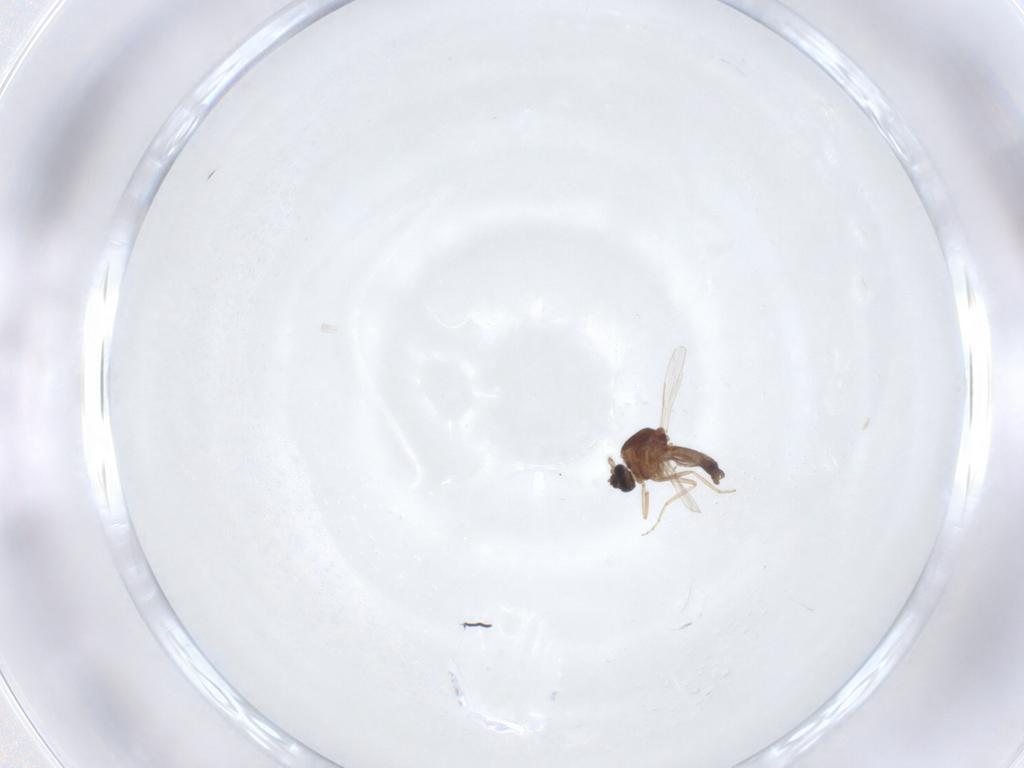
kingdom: Animalia
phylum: Arthropoda
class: Insecta
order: Diptera
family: Ceratopogonidae
